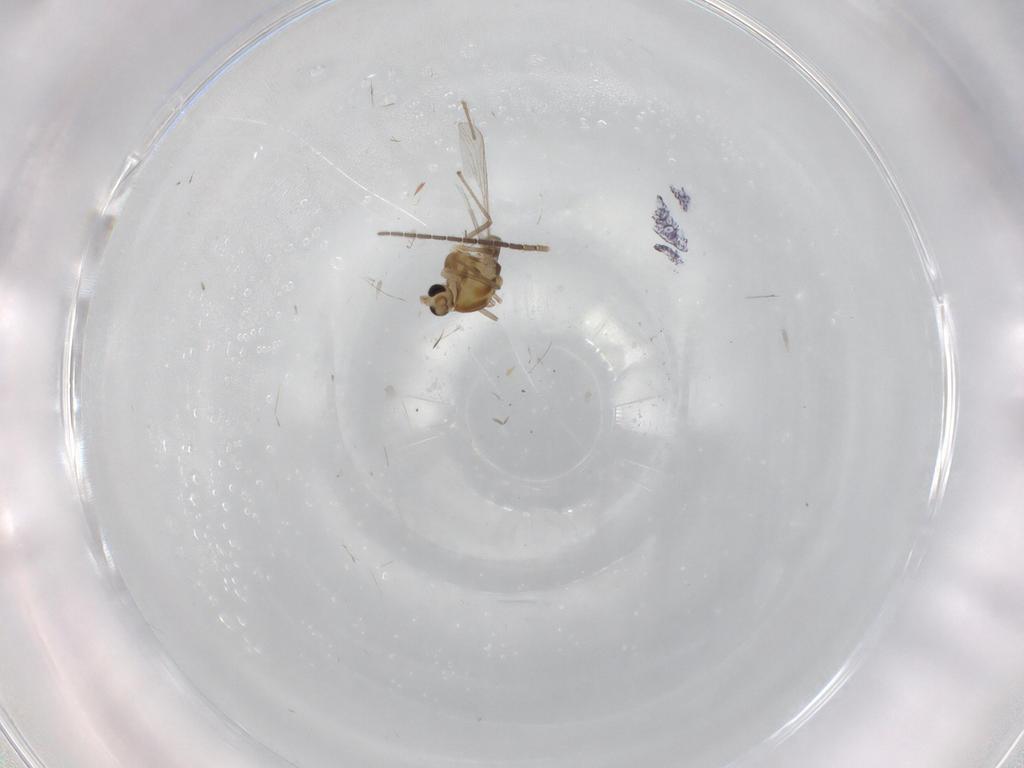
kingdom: Animalia
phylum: Arthropoda
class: Insecta
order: Diptera
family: Chironomidae
